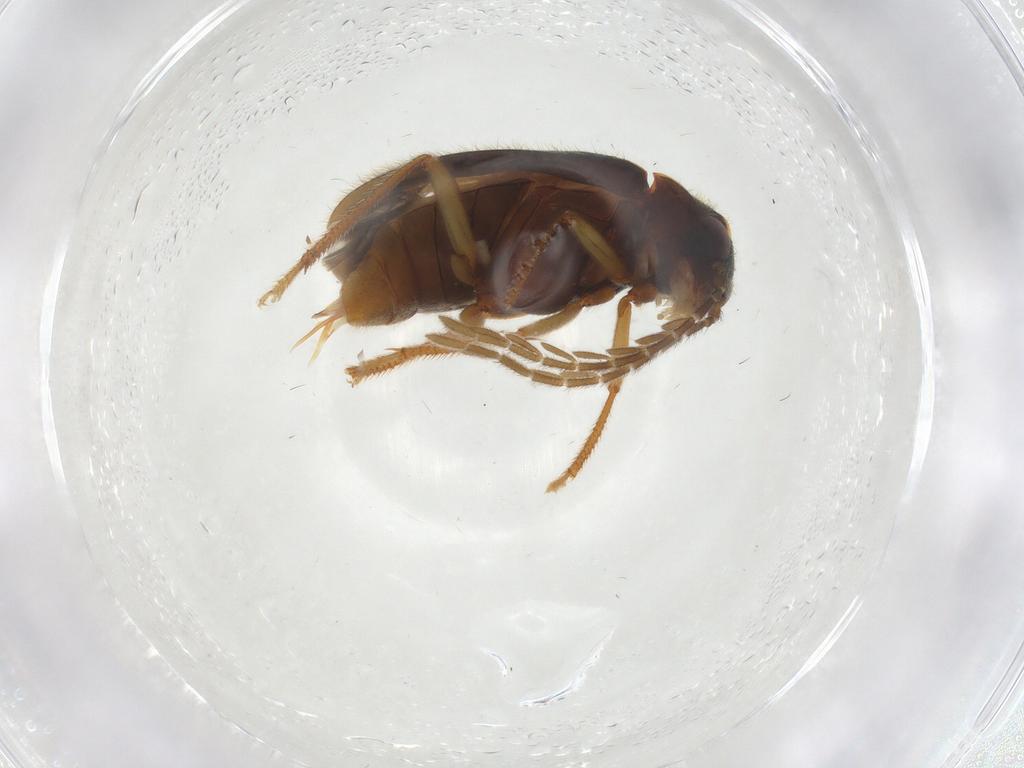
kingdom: Animalia
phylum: Arthropoda
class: Insecta
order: Coleoptera
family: Ptilodactylidae
